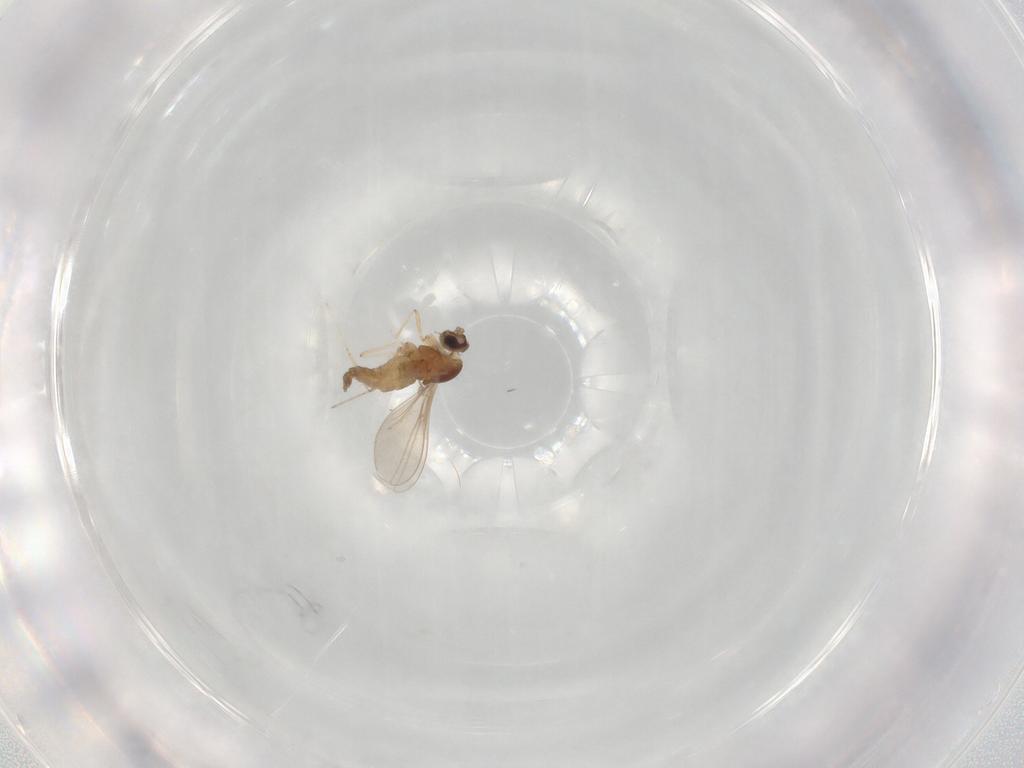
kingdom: Animalia
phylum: Arthropoda
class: Insecta
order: Diptera
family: Cecidomyiidae
